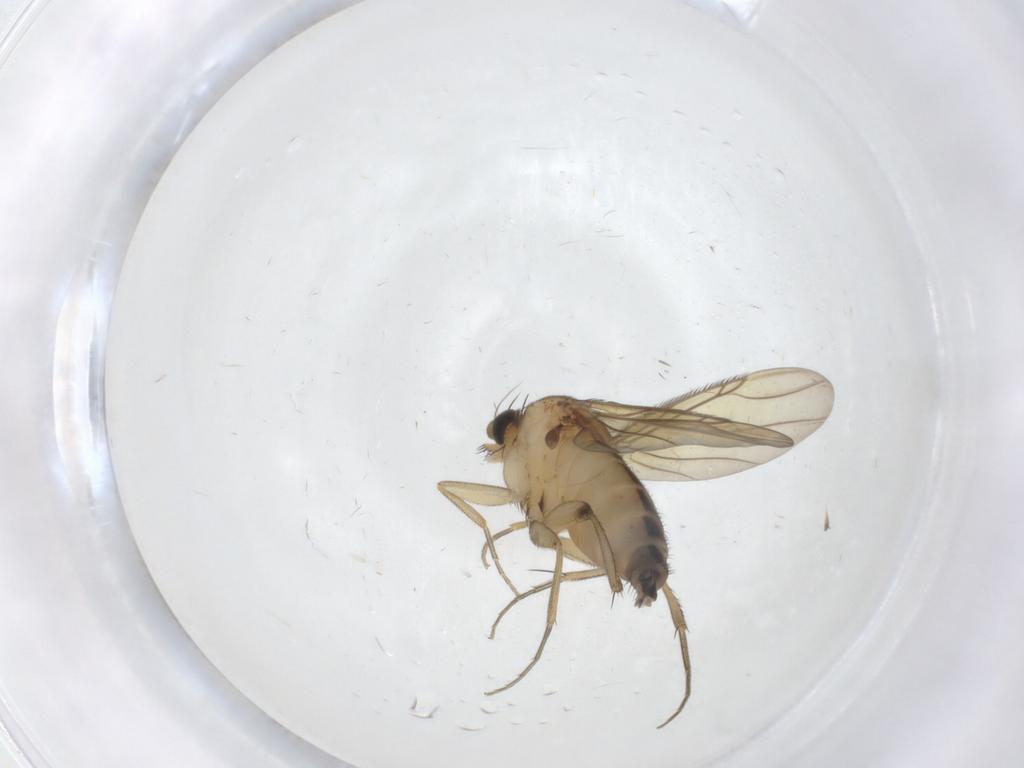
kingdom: Animalia
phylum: Arthropoda
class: Insecta
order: Diptera
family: Phoridae
